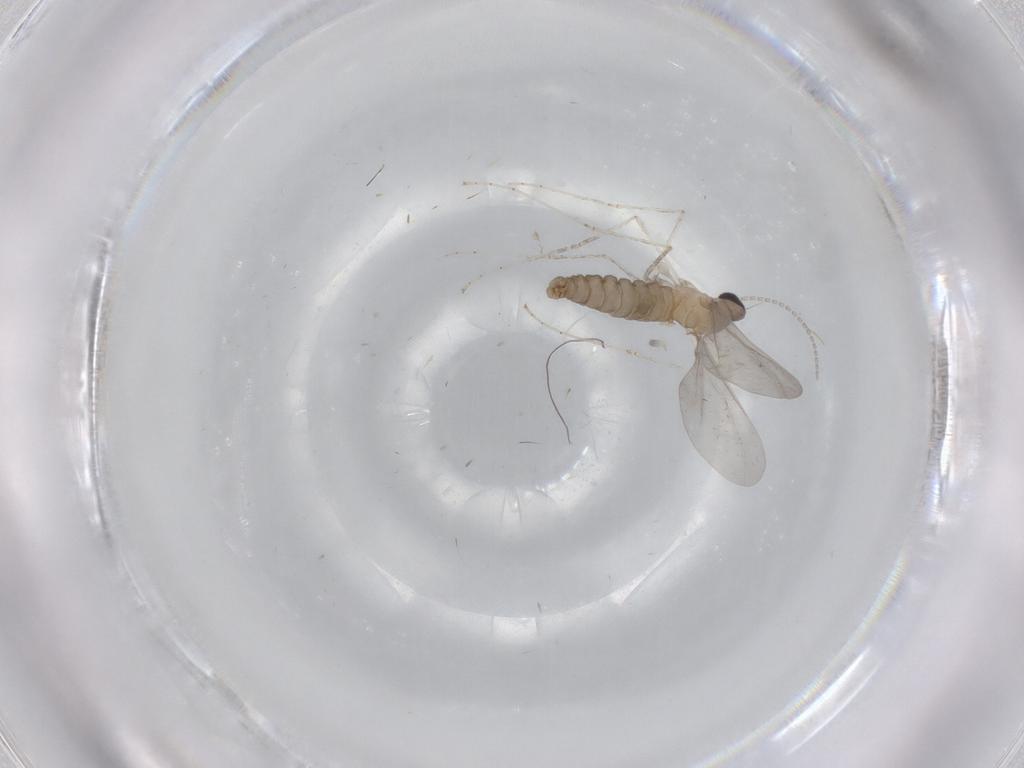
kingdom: Animalia
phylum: Arthropoda
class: Insecta
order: Diptera
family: Cecidomyiidae
